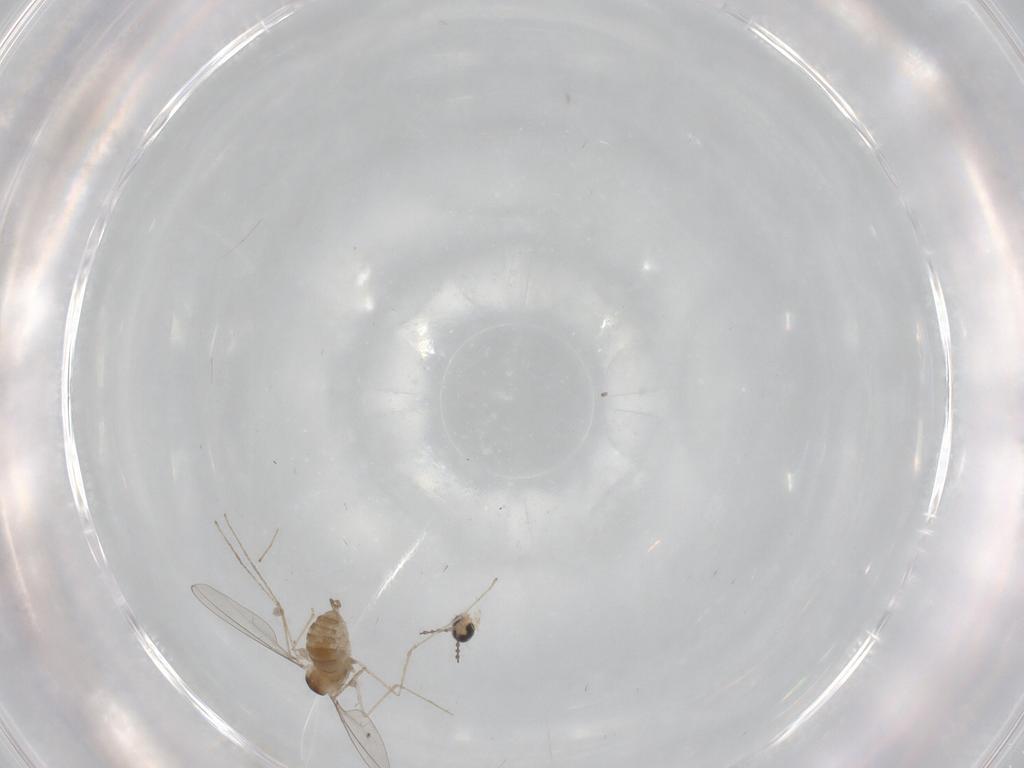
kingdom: Animalia
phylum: Arthropoda
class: Insecta
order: Diptera
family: Cecidomyiidae
